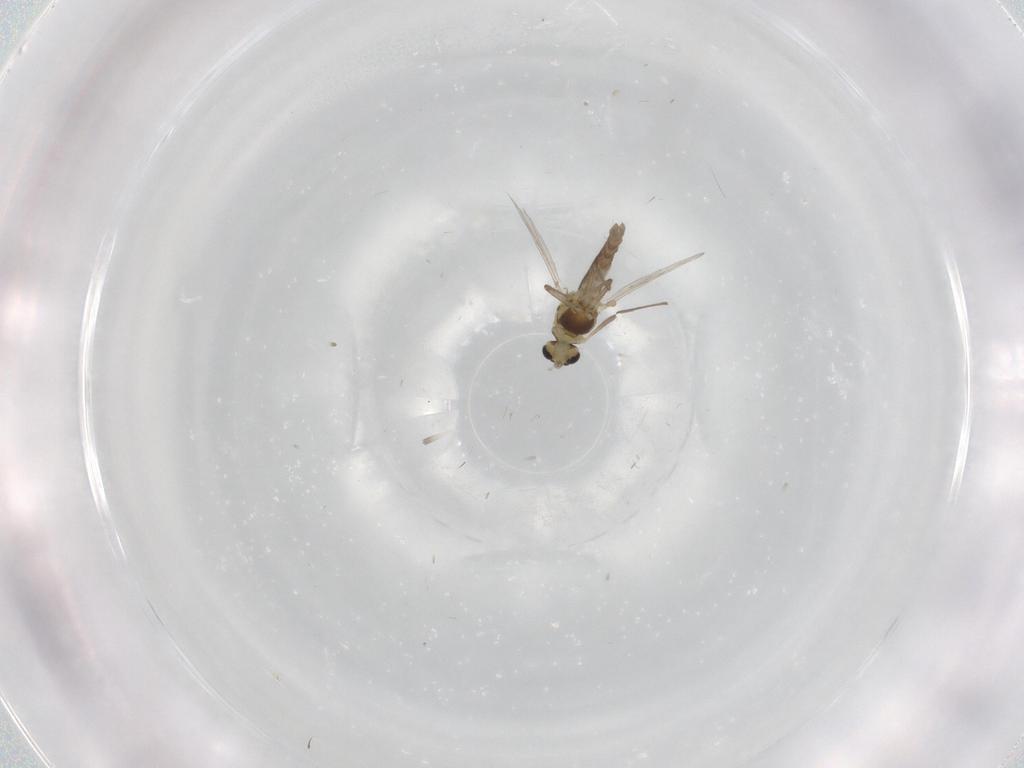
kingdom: Animalia
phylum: Arthropoda
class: Insecta
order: Diptera
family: Chironomidae
